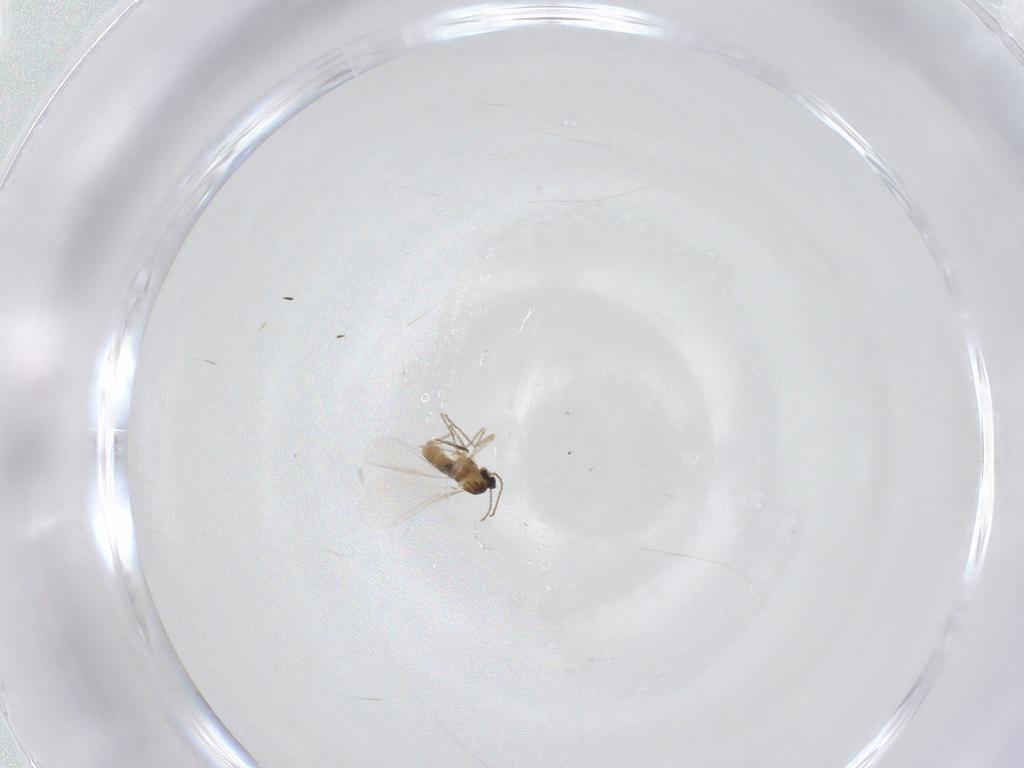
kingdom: Animalia
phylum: Arthropoda
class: Insecta
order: Diptera
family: Cecidomyiidae
